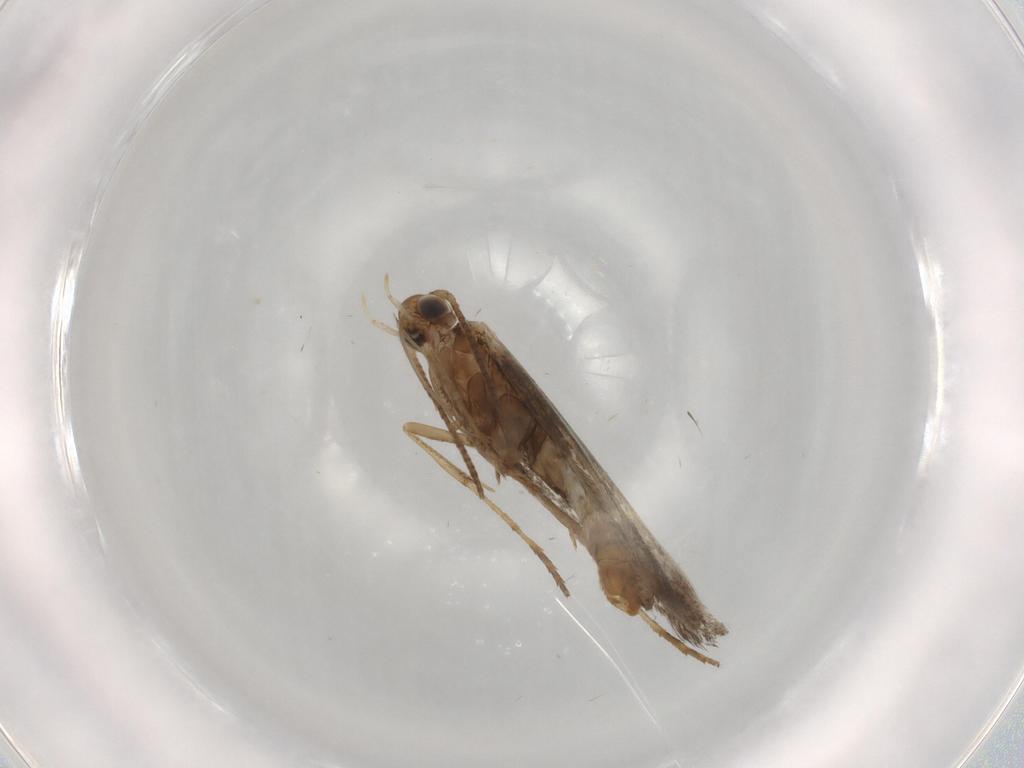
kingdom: Animalia
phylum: Arthropoda
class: Insecta
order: Lepidoptera
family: Gracillariidae
